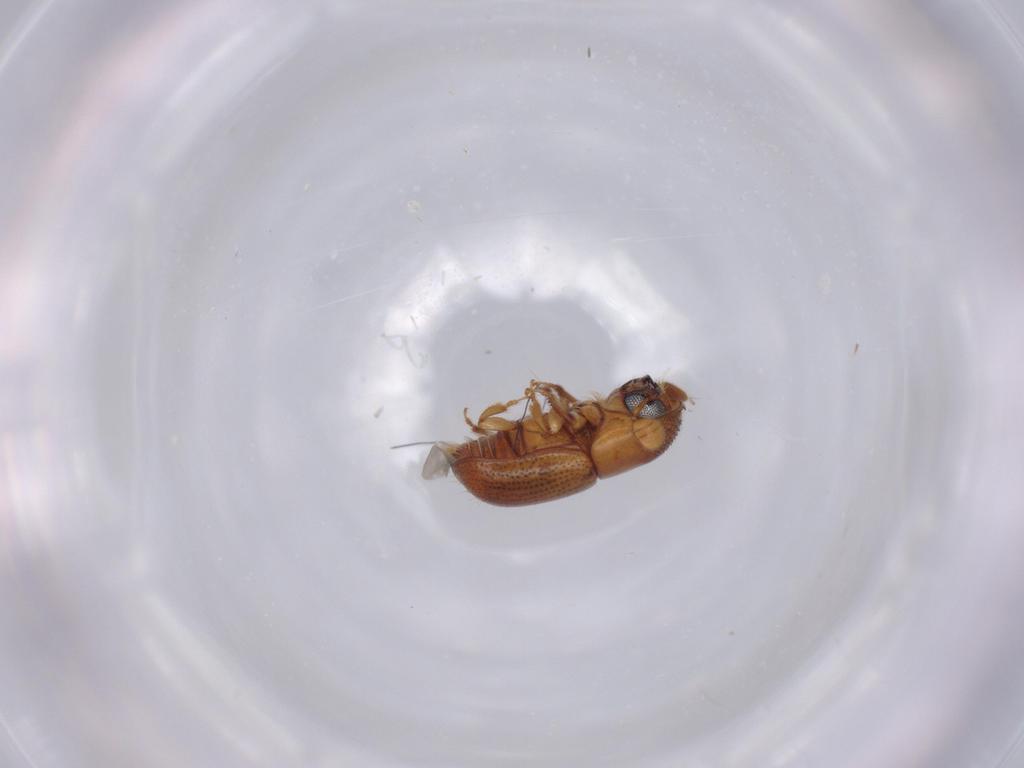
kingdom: Animalia
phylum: Arthropoda
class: Insecta
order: Coleoptera
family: Curculionidae
